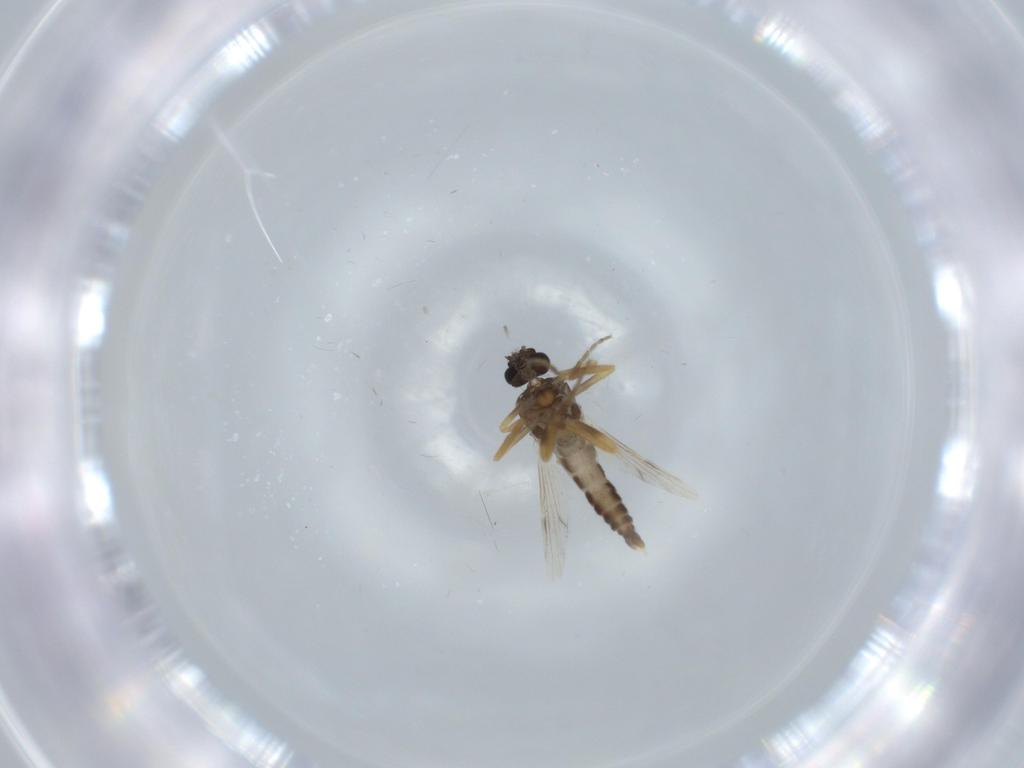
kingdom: Animalia
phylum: Arthropoda
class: Insecta
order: Diptera
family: Ceratopogonidae
